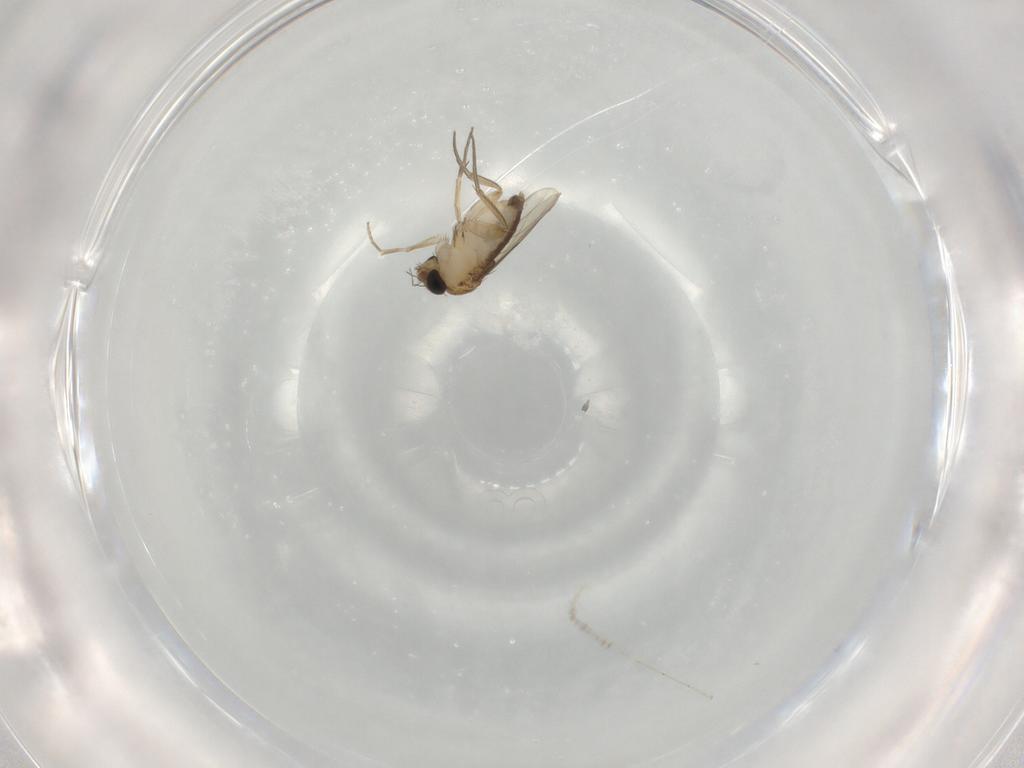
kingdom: Animalia
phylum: Arthropoda
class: Insecta
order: Diptera
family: Phoridae
